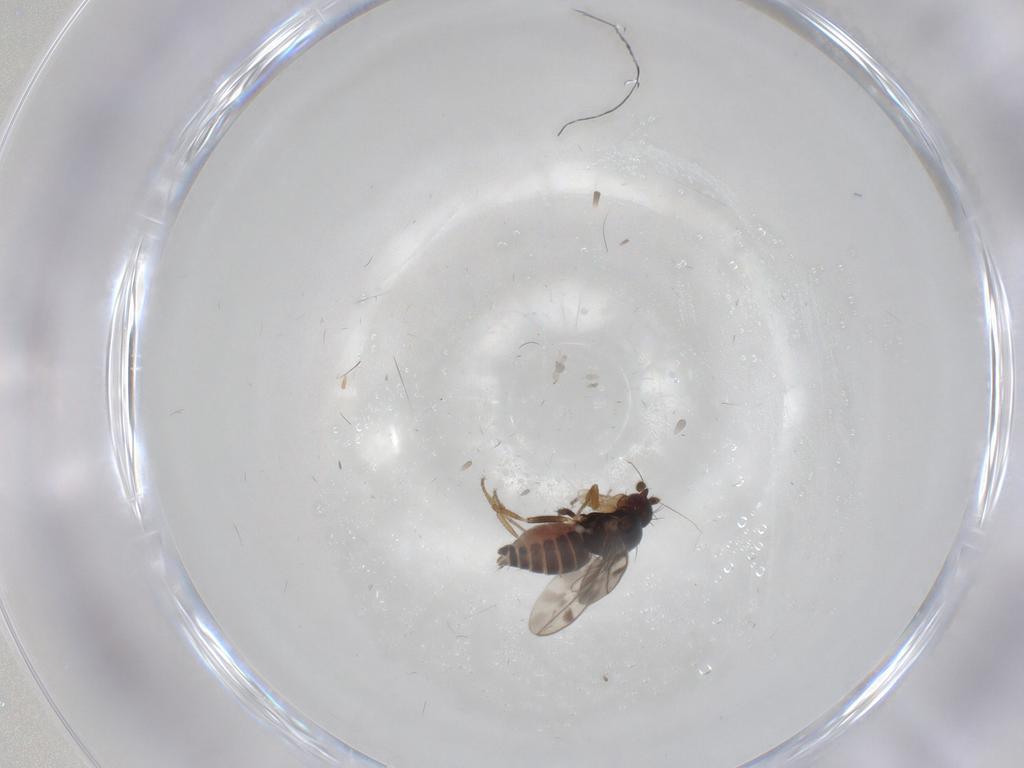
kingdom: Animalia
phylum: Arthropoda
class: Insecta
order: Diptera
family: Sphaeroceridae
